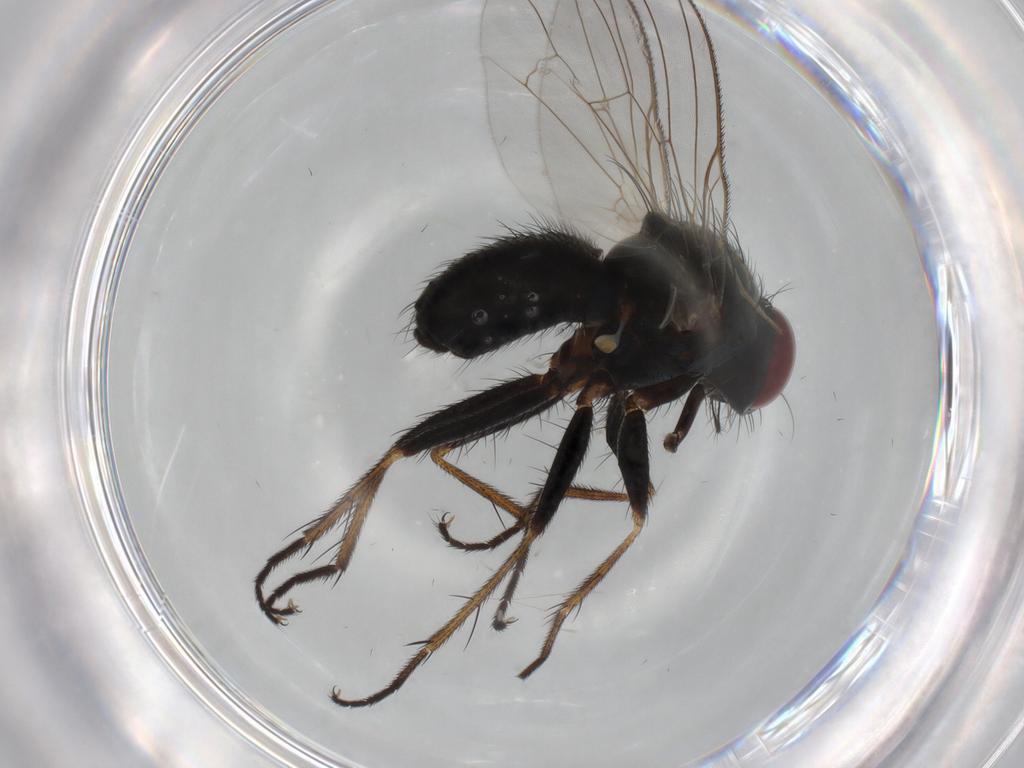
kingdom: Animalia
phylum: Arthropoda
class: Insecta
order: Diptera
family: Muscidae
